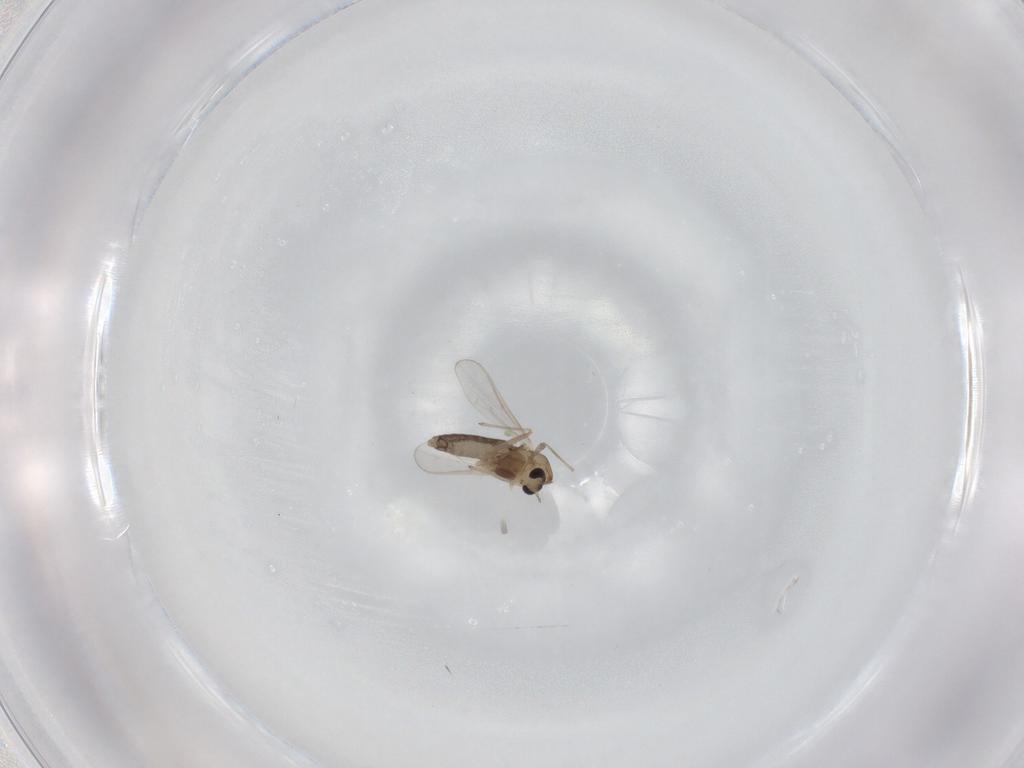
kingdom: Animalia
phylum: Arthropoda
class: Insecta
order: Diptera
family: Chironomidae
